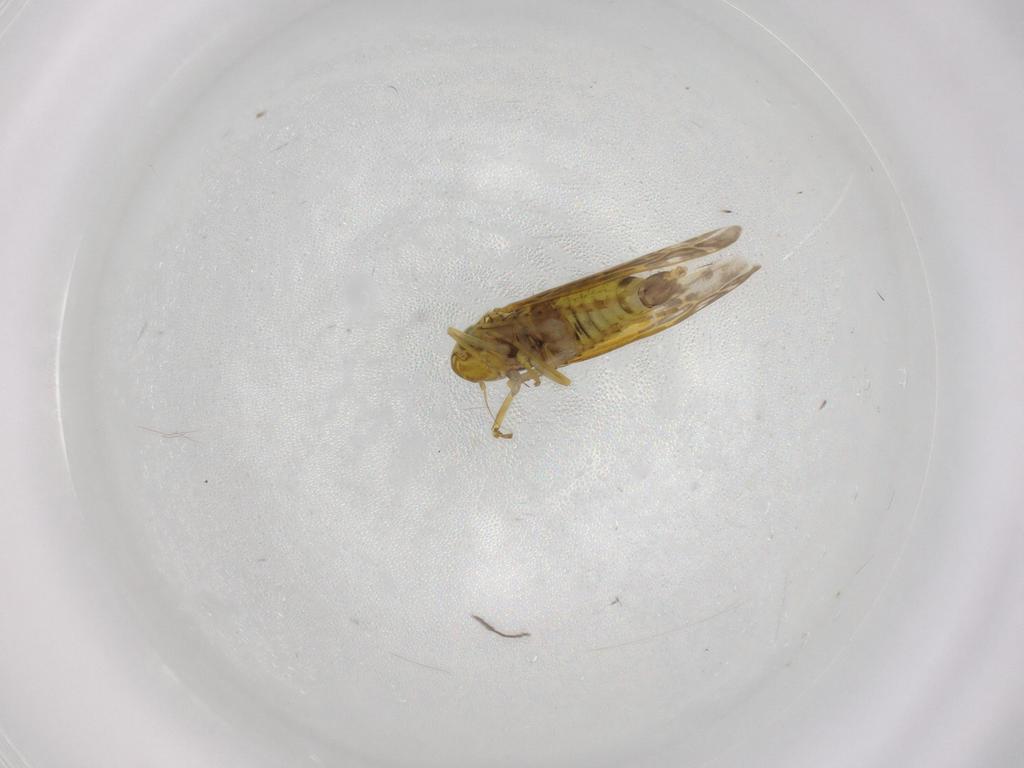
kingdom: Animalia
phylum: Arthropoda
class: Insecta
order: Hemiptera
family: Cicadellidae
